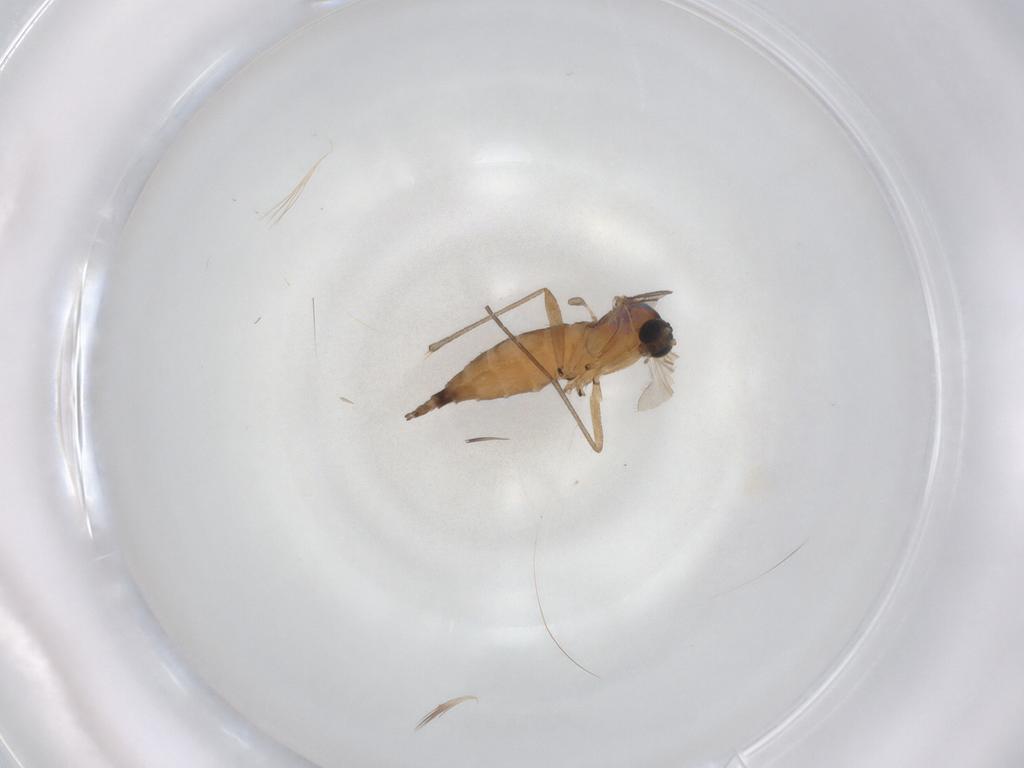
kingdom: Animalia
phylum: Arthropoda
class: Insecta
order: Diptera
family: Sciaridae
